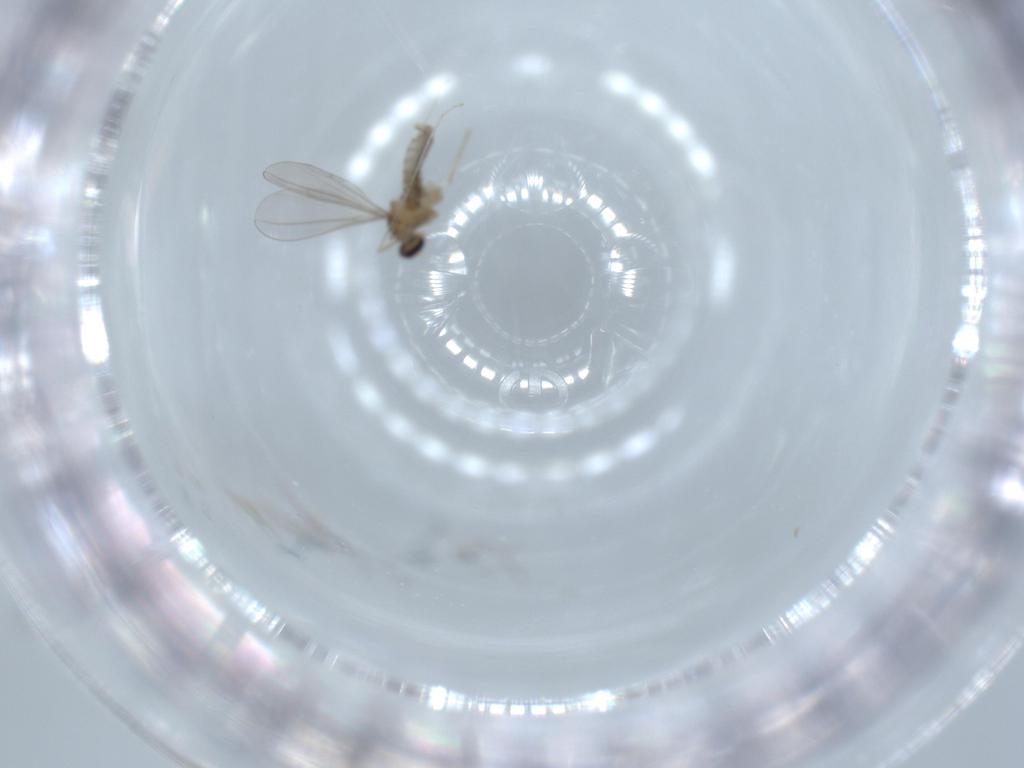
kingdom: Animalia
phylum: Arthropoda
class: Insecta
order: Diptera
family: Cecidomyiidae
